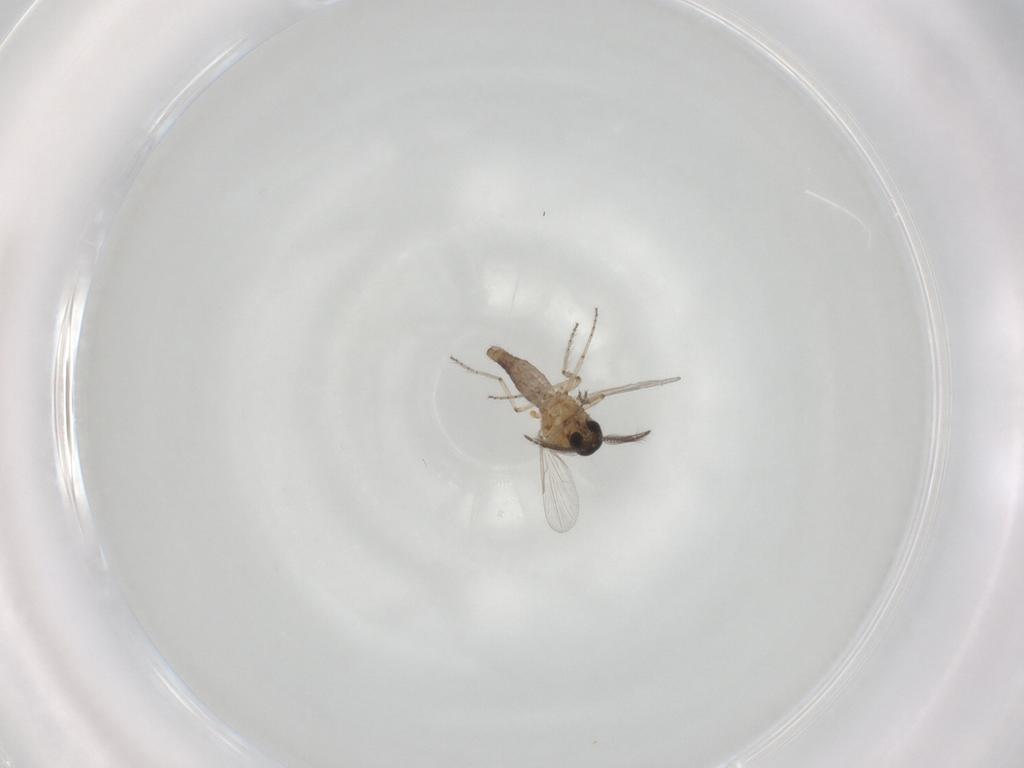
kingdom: Animalia
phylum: Arthropoda
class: Insecta
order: Diptera
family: Ceratopogonidae
